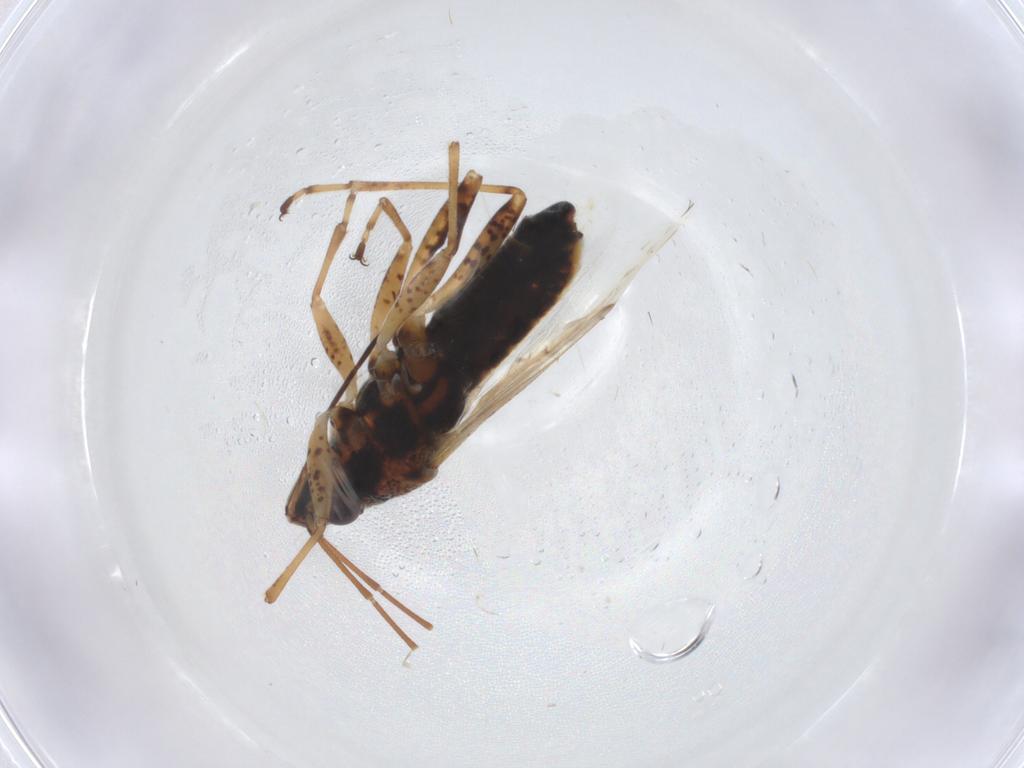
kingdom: Animalia
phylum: Arthropoda
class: Insecta
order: Hemiptera
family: Lygaeidae
